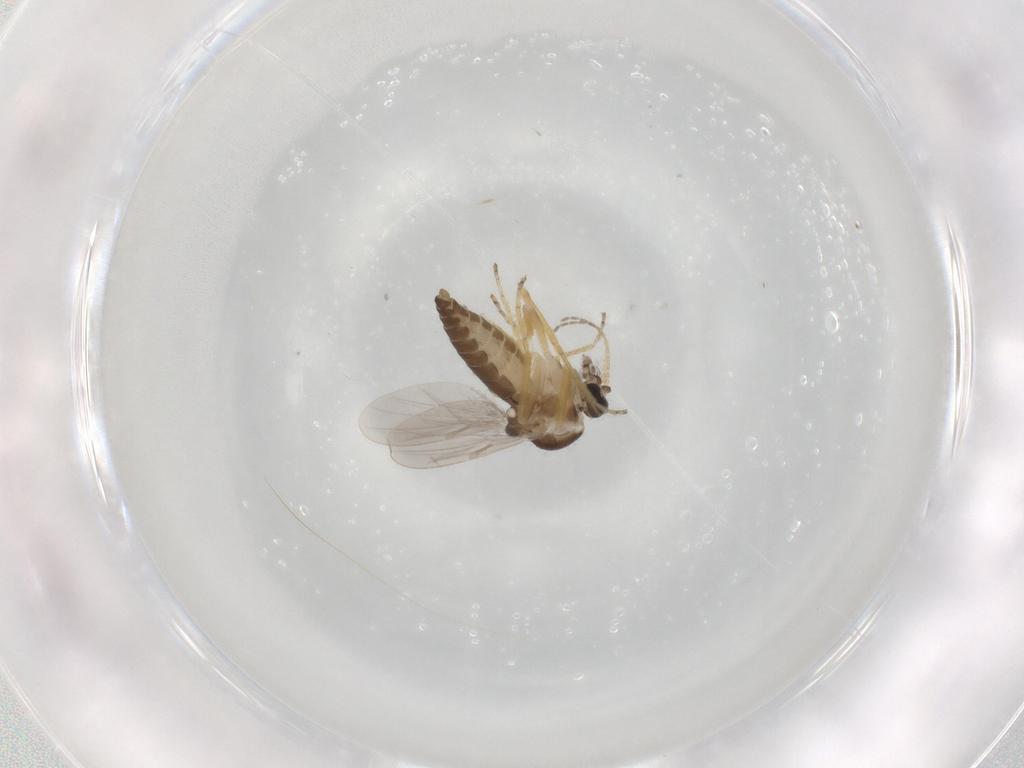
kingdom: Animalia
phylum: Arthropoda
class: Insecta
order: Diptera
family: Ceratopogonidae
